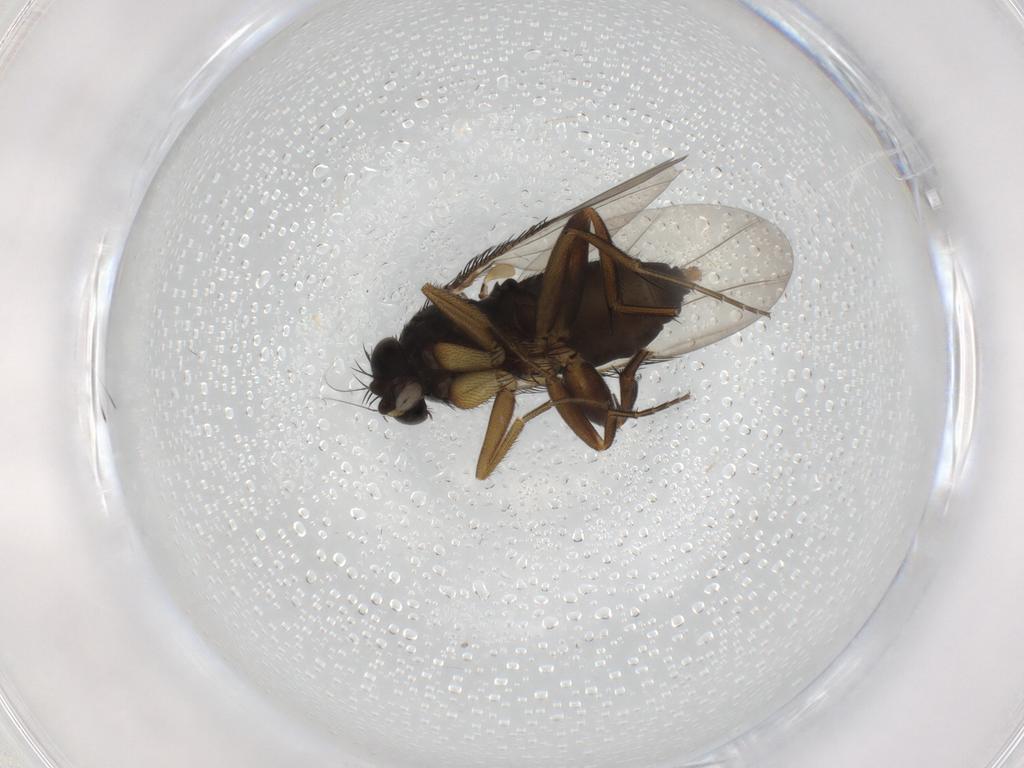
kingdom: Animalia
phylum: Arthropoda
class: Insecta
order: Diptera
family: Phoridae
